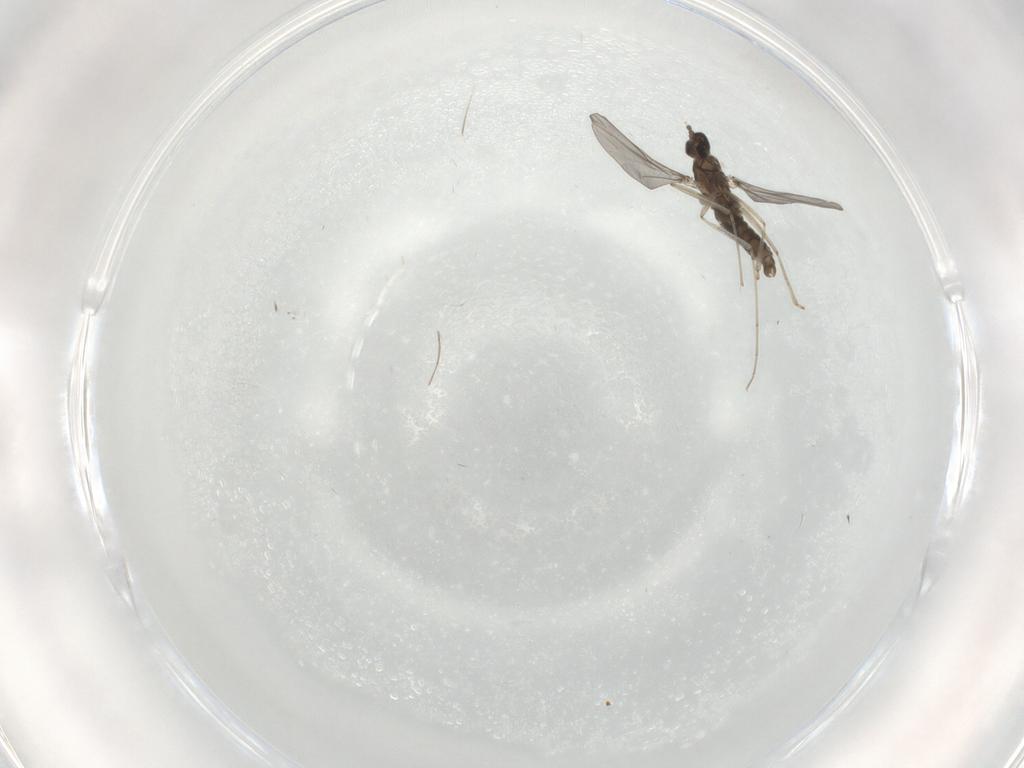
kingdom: Animalia
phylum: Arthropoda
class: Insecta
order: Diptera
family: Cecidomyiidae
